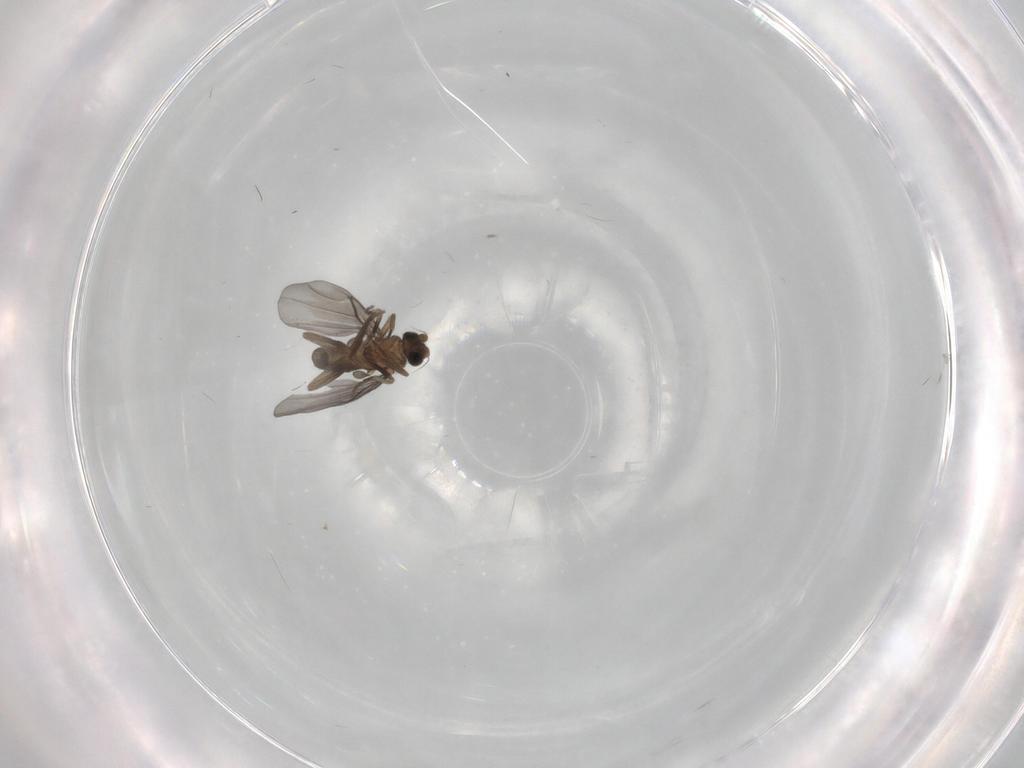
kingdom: Animalia
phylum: Arthropoda
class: Insecta
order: Diptera
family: Phoridae
